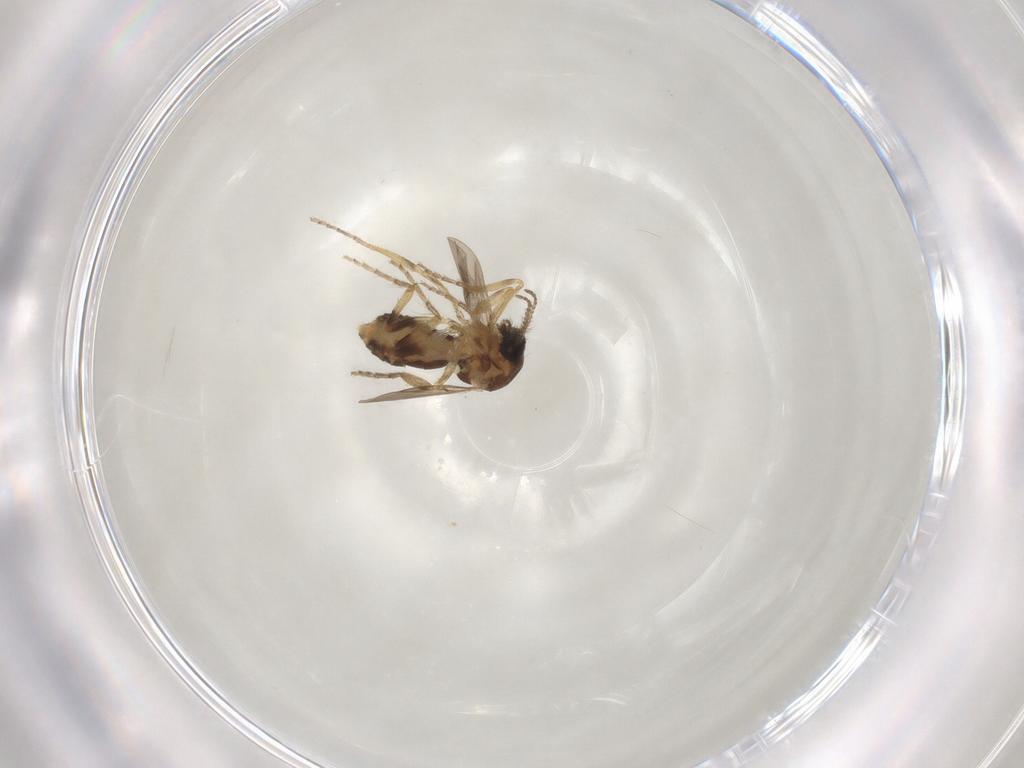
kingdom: Animalia
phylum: Arthropoda
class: Insecta
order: Diptera
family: Ceratopogonidae
